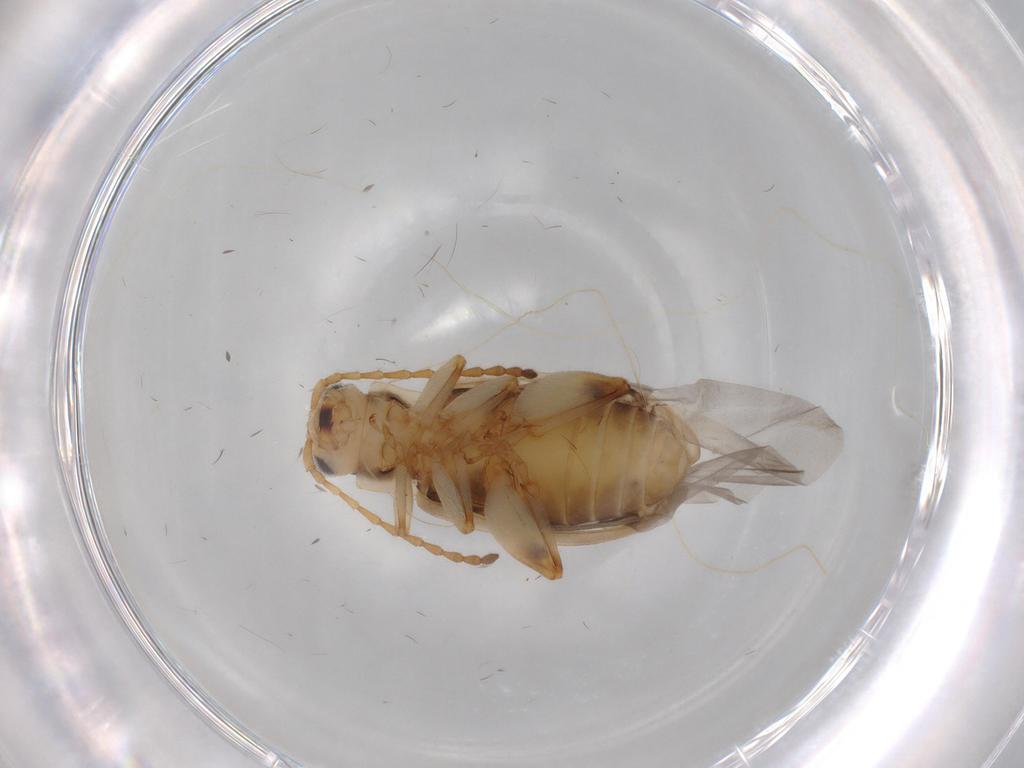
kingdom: Animalia
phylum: Arthropoda
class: Insecta
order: Coleoptera
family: Chrysomelidae
